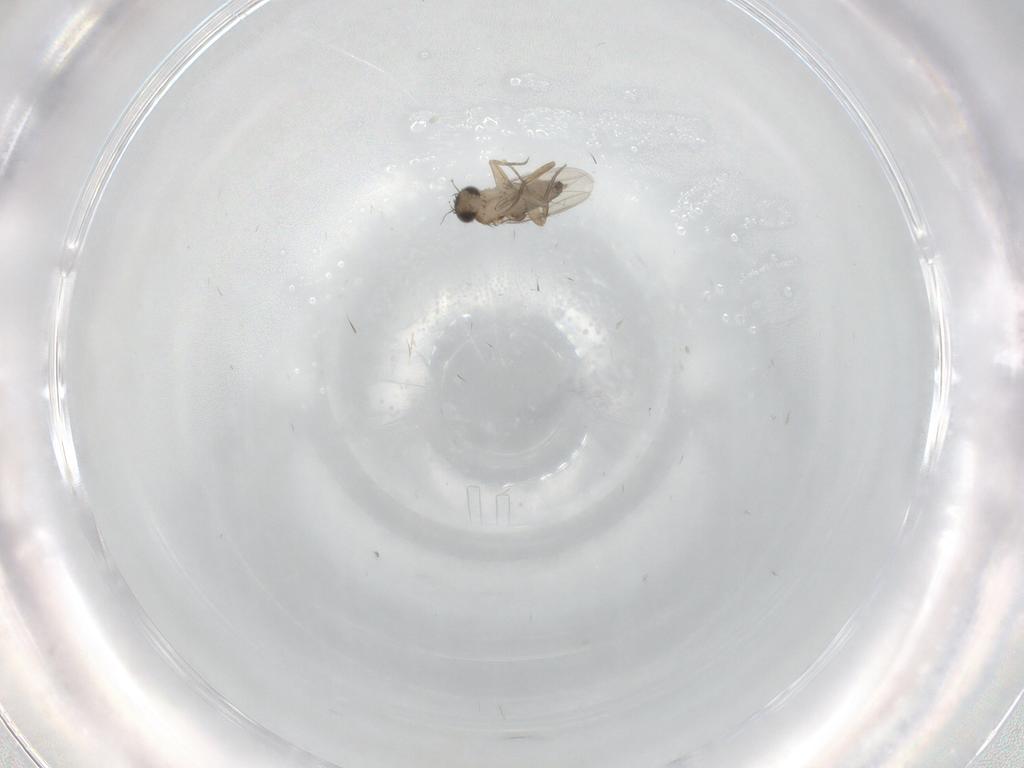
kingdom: Animalia
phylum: Arthropoda
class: Insecta
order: Diptera
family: Phoridae
